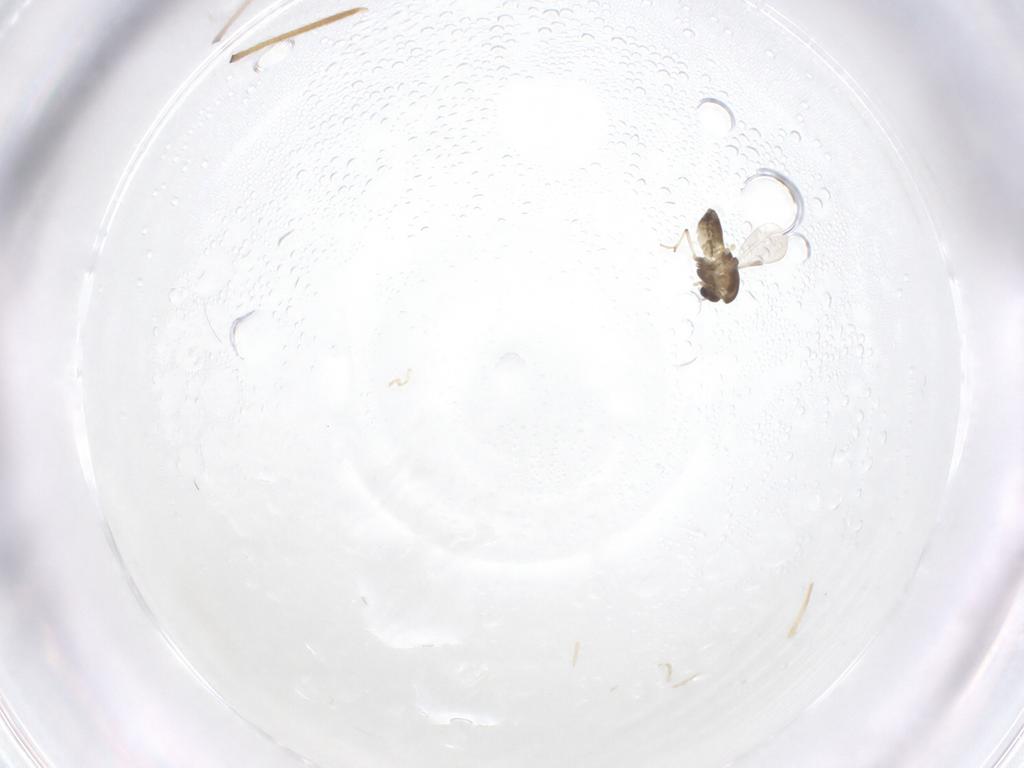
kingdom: Animalia
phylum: Arthropoda
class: Insecta
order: Diptera
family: Chironomidae
